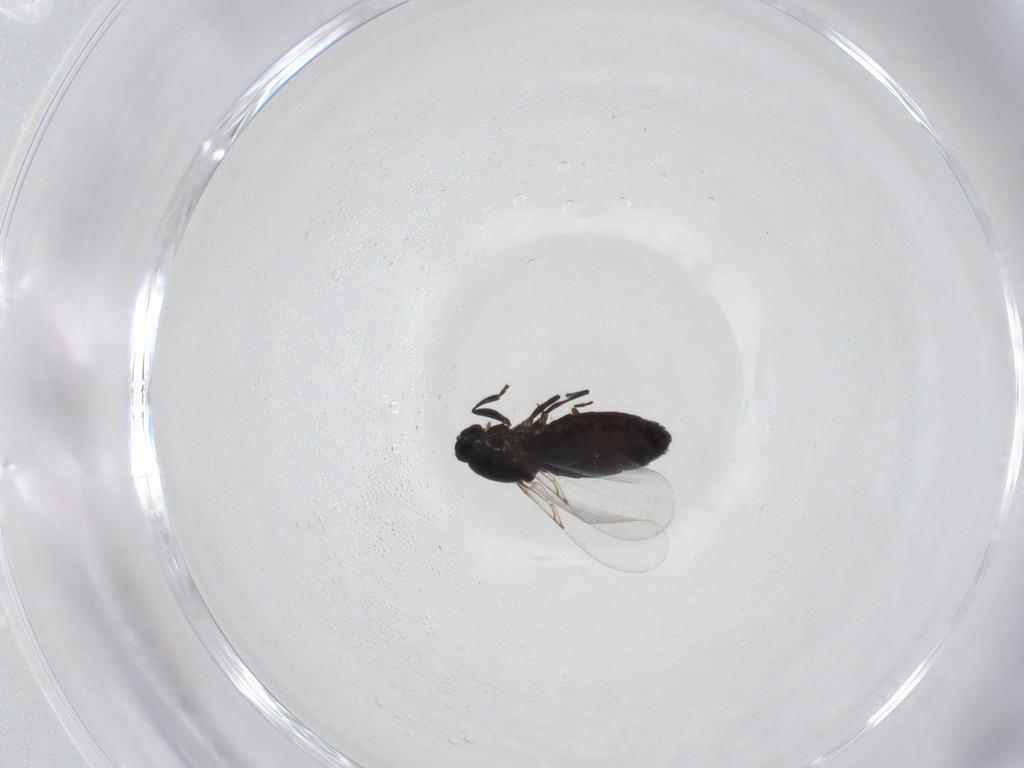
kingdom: Animalia
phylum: Arthropoda
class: Insecta
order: Diptera
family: Scatopsidae
